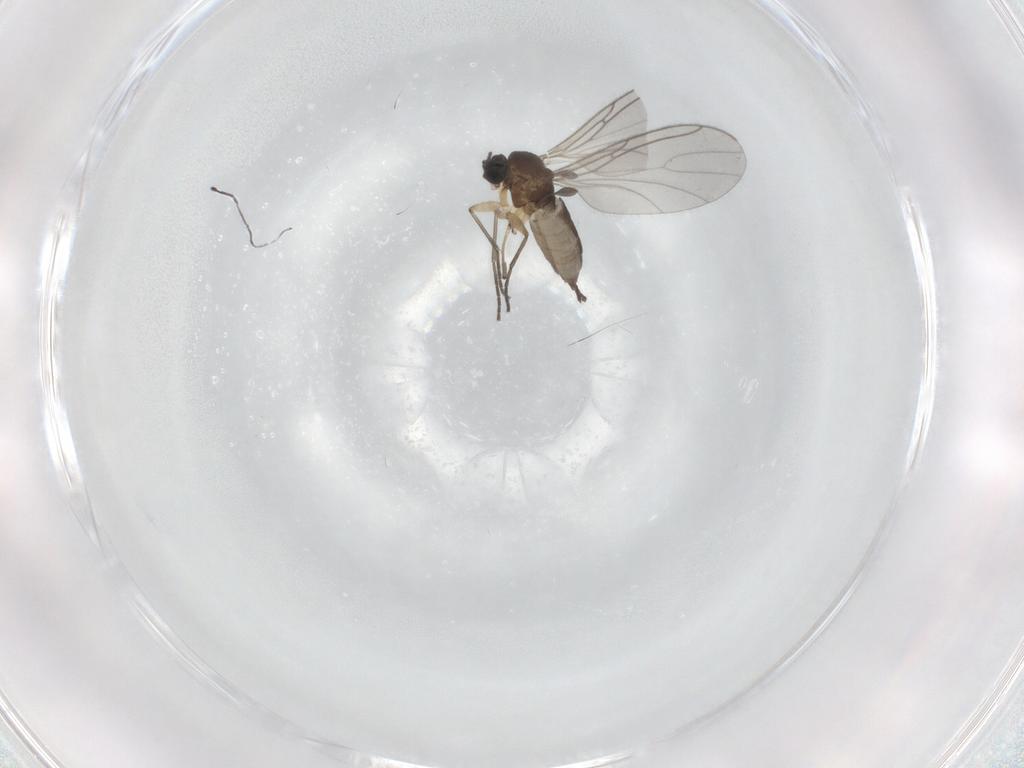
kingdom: Animalia
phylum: Arthropoda
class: Insecta
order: Diptera
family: Sciaridae
